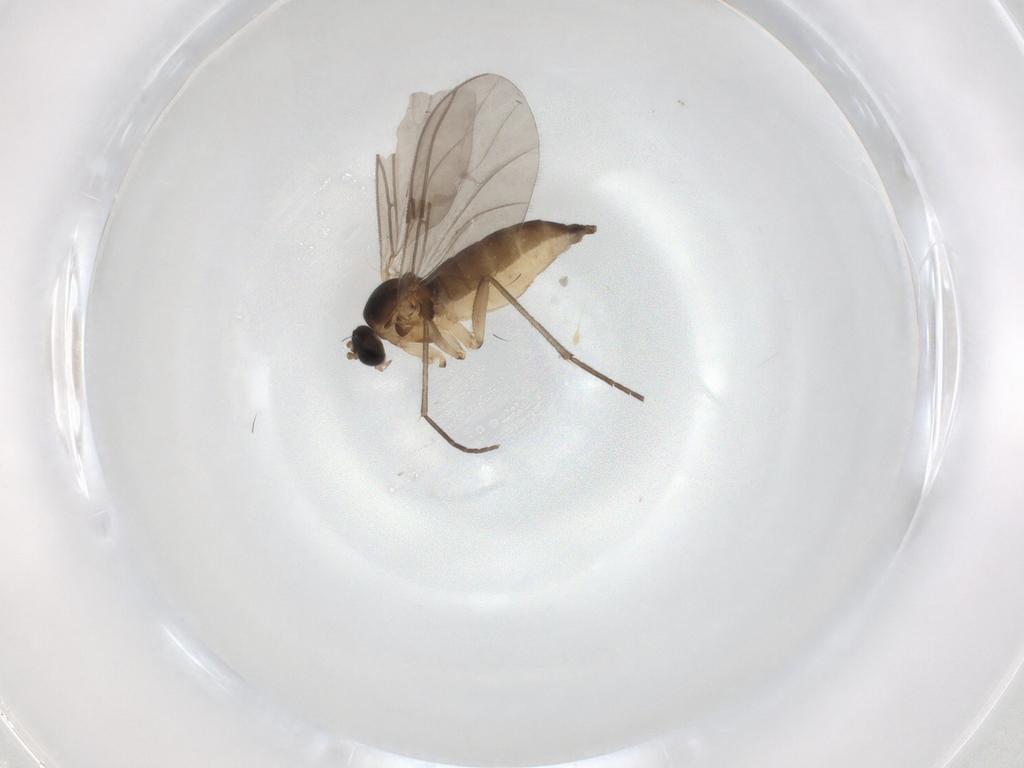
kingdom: Animalia
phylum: Arthropoda
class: Insecta
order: Diptera
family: Sciaridae
